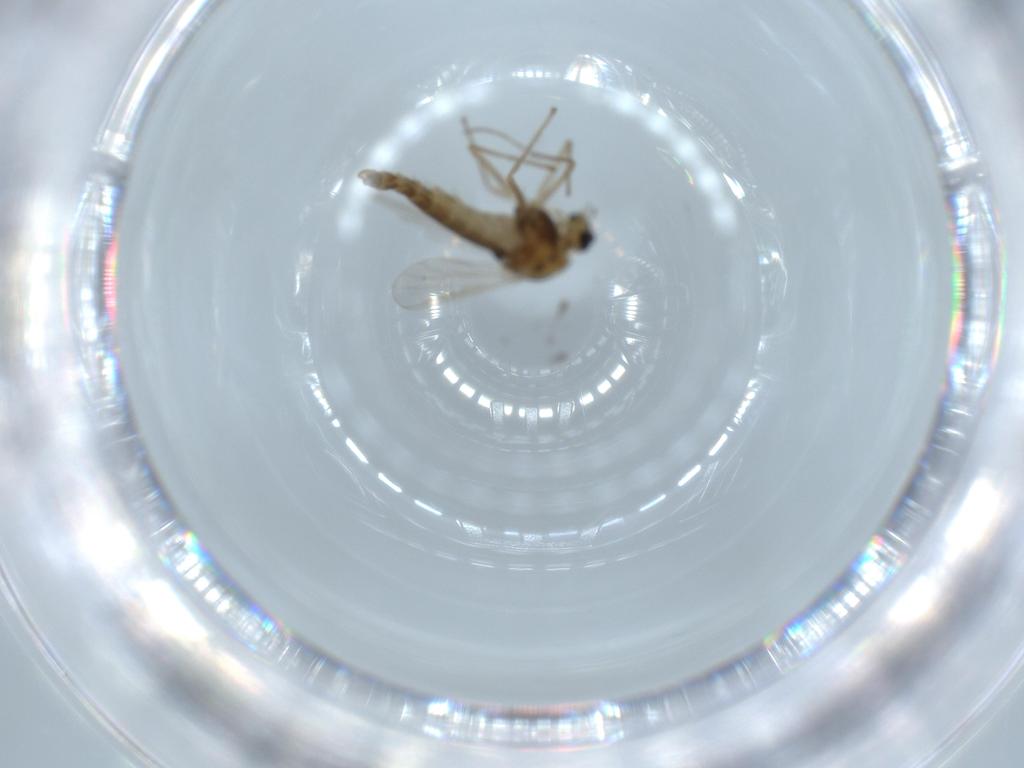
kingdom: Animalia
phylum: Arthropoda
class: Insecta
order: Diptera
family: Chironomidae
